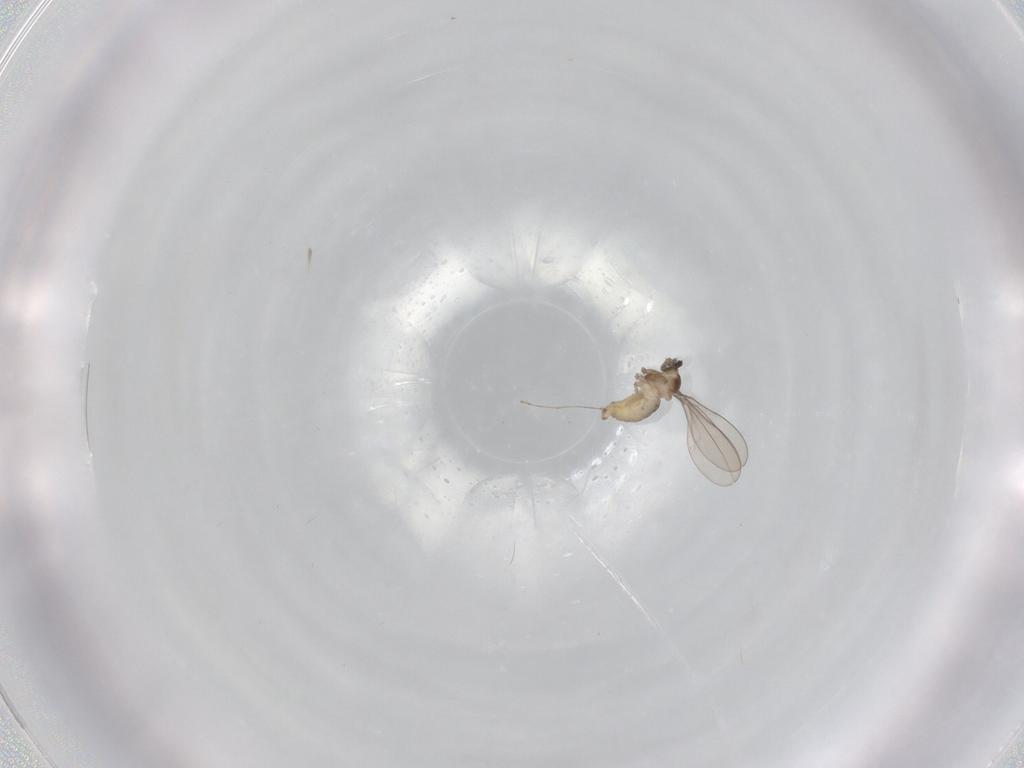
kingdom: Animalia
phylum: Arthropoda
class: Insecta
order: Diptera
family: Cecidomyiidae
